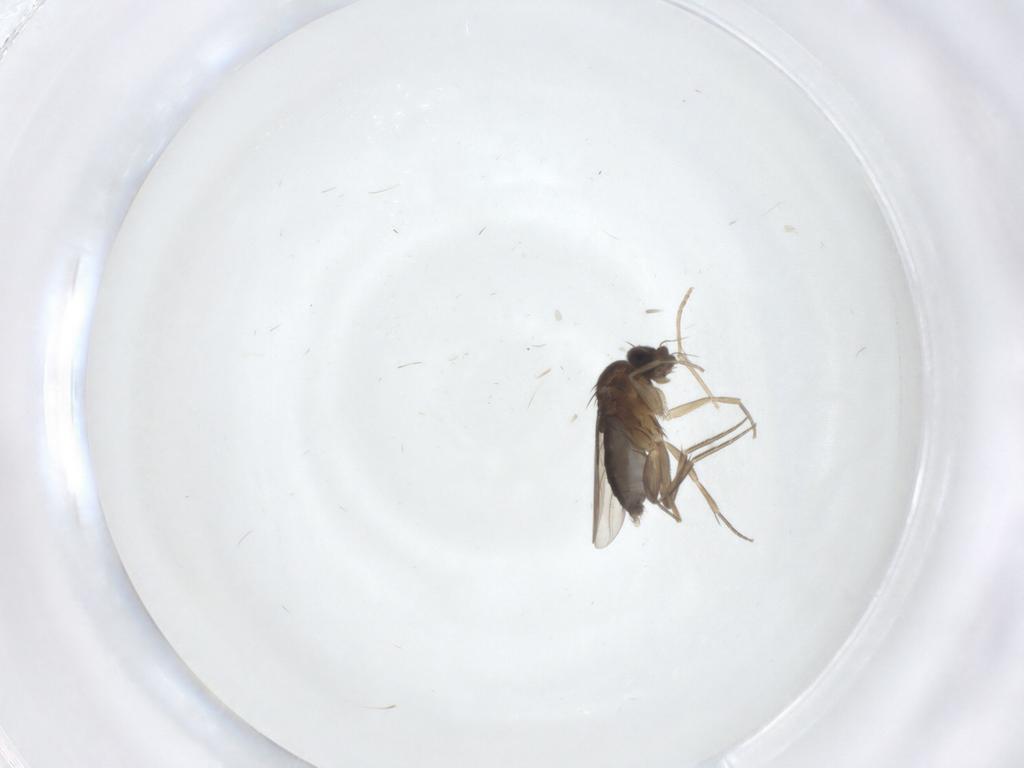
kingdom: Animalia
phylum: Arthropoda
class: Insecta
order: Diptera
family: Phoridae
